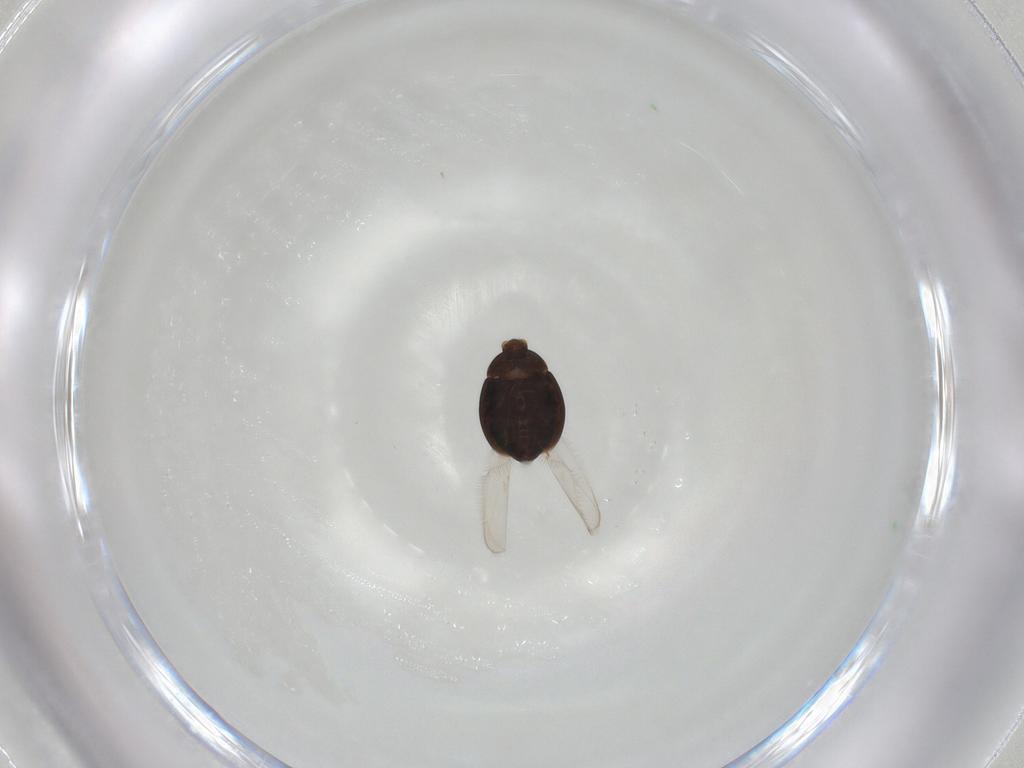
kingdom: Animalia
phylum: Arthropoda
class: Insecta
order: Coleoptera
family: Corylophidae
